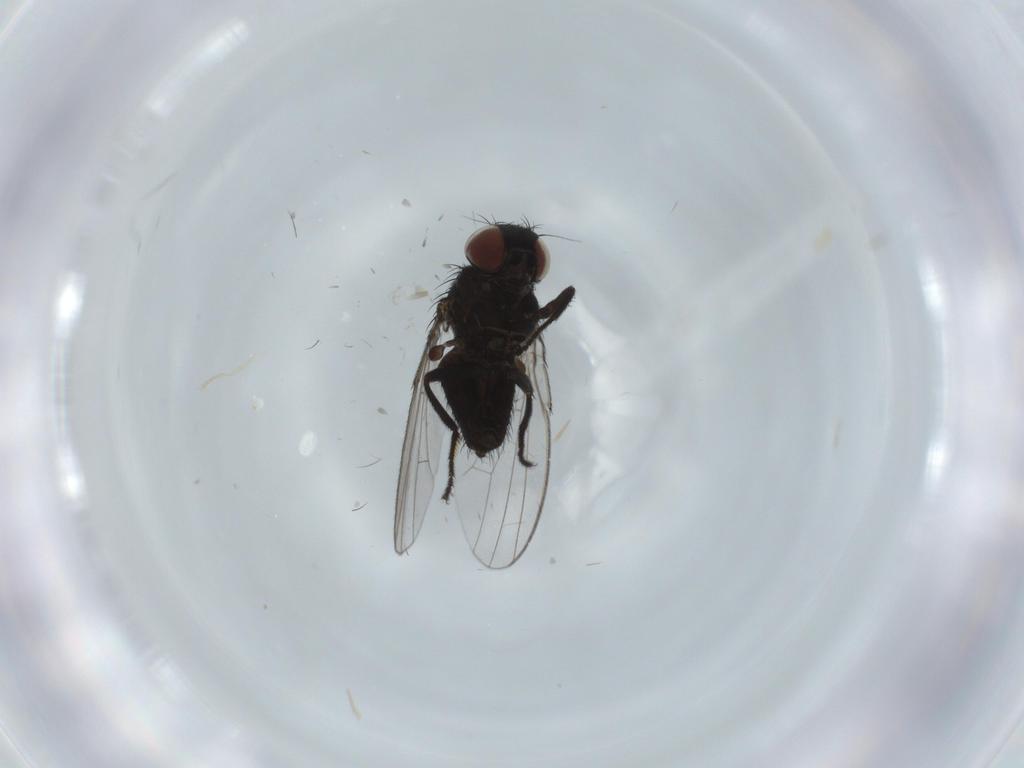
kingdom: Animalia
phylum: Arthropoda
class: Insecta
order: Diptera
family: Milichiidae
